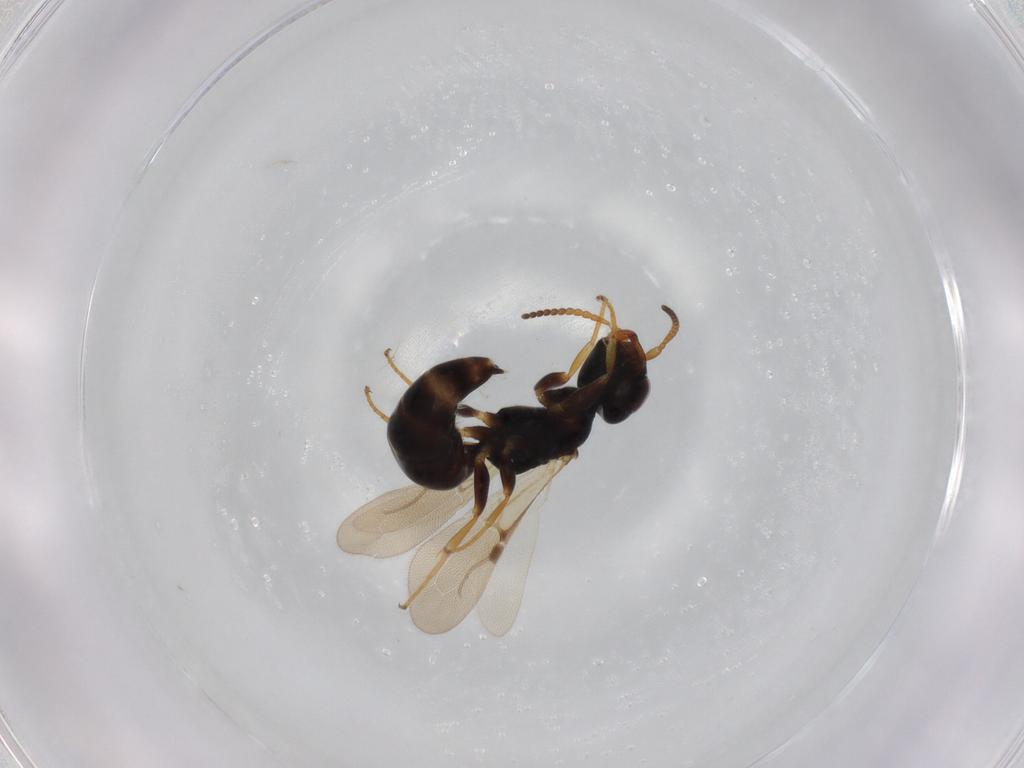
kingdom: Animalia
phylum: Arthropoda
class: Insecta
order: Hymenoptera
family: Bethylidae
